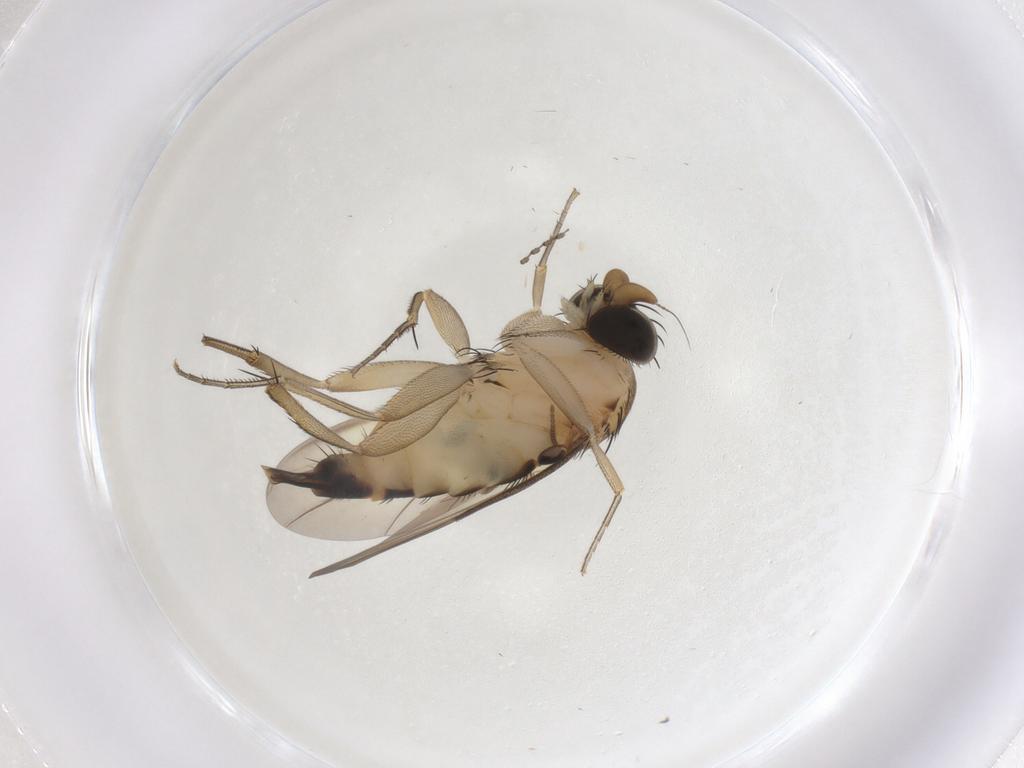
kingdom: Animalia
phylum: Arthropoda
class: Insecta
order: Diptera
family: Phoridae
